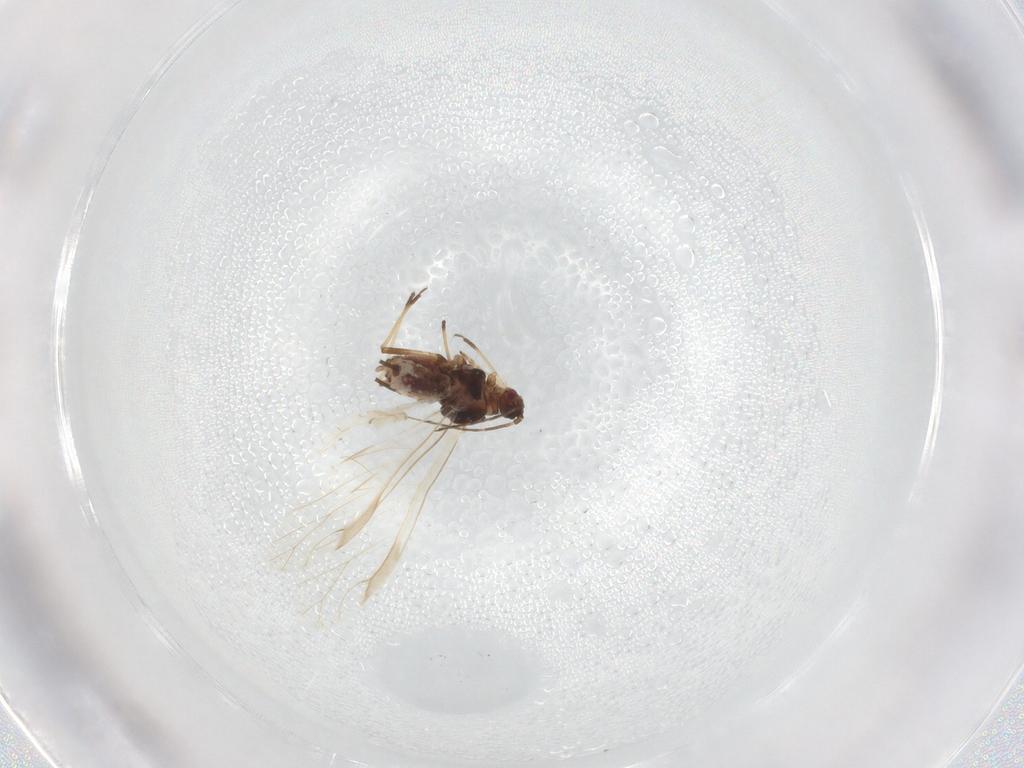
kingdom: Animalia
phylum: Arthropoda
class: Insecta
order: Hemiptera
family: Aphididae
